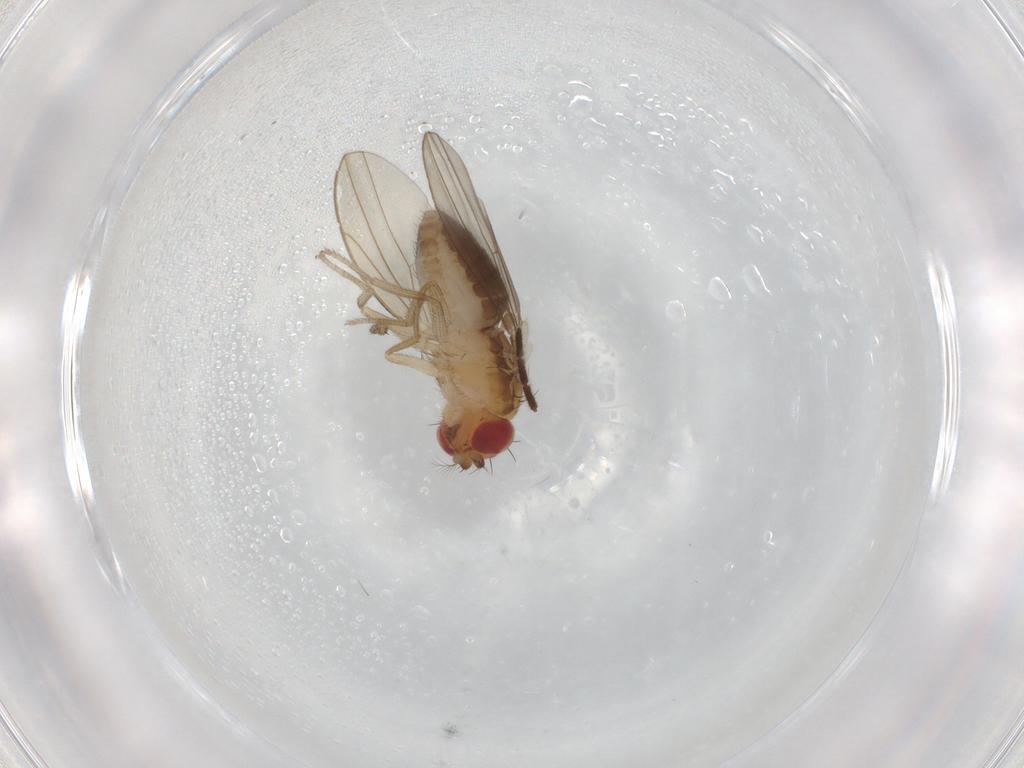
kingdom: Animalia
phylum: Arthropoda
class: Insecta
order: Diptera
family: Drosophilidae
